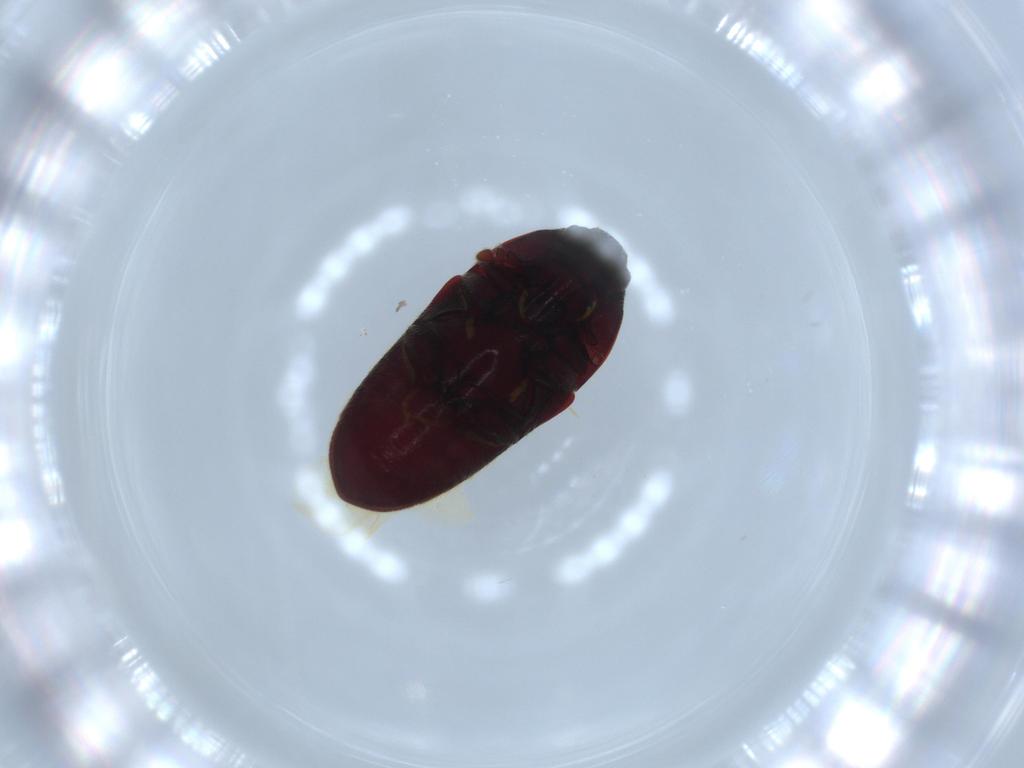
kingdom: Animalia
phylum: Arthropoda
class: Insecta
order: Coleoptera
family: Throscidae
